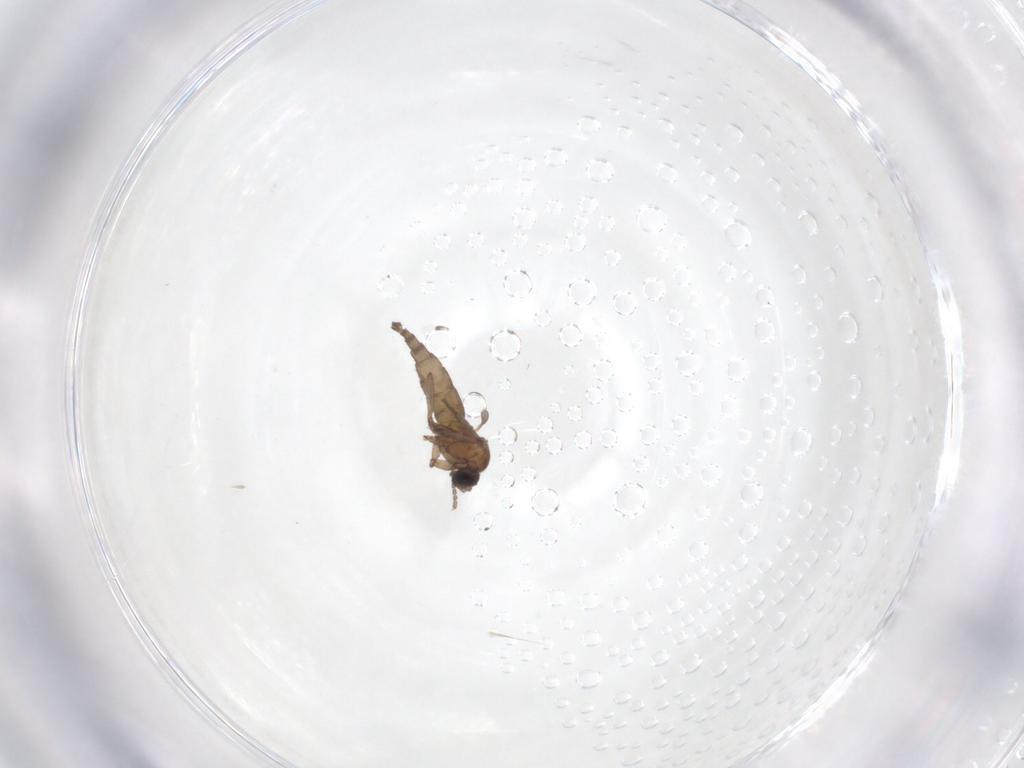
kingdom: Animalia
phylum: Arthropoda
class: Insecta
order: Diptera
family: Sciaridae
